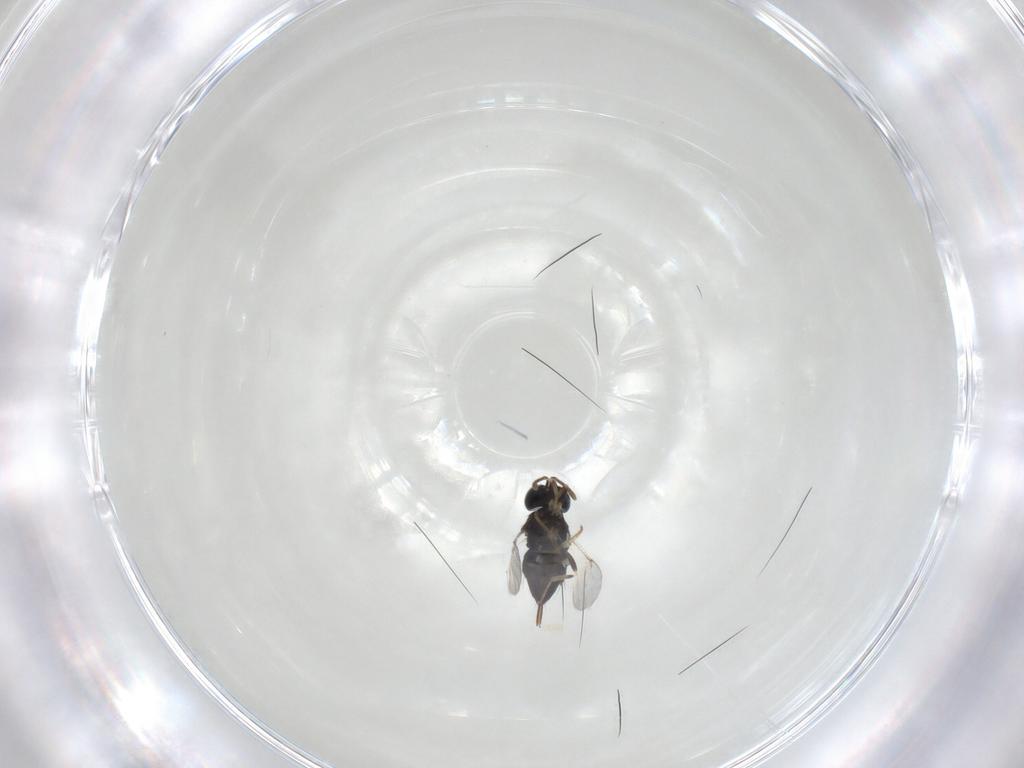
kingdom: Animalia
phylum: Arthropoda
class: Insecta
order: Hymenoptera
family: Encyrtidae
